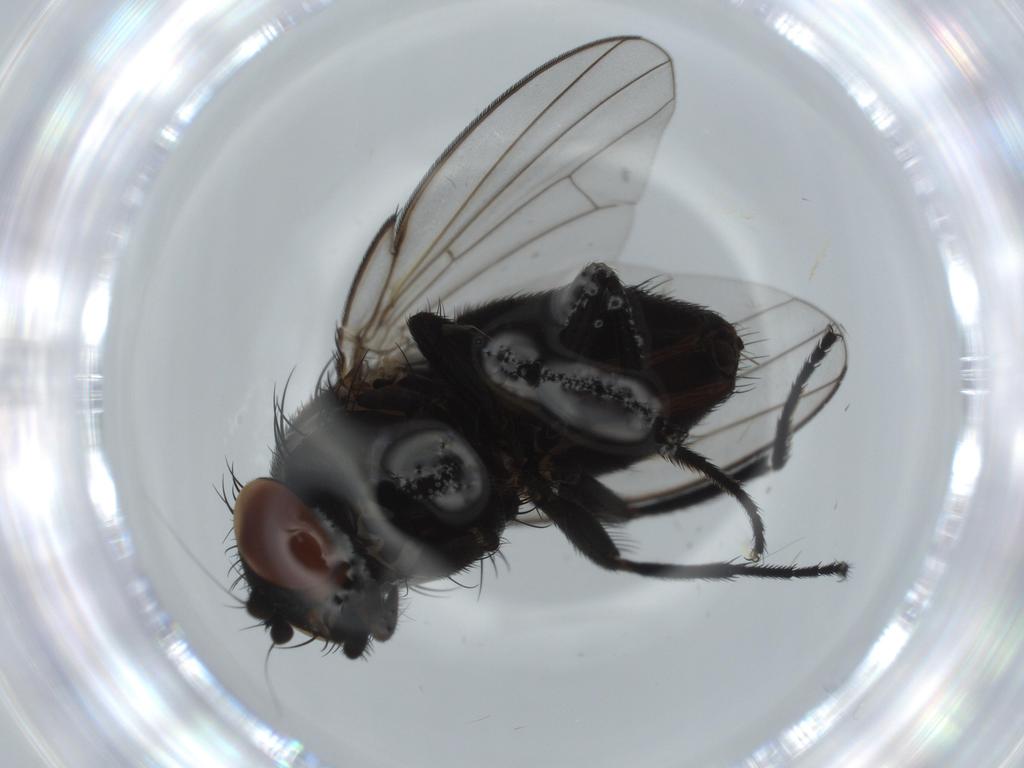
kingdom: Animalia
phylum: Arthropoda
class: Insecta
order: Diptera
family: Milichiidae
